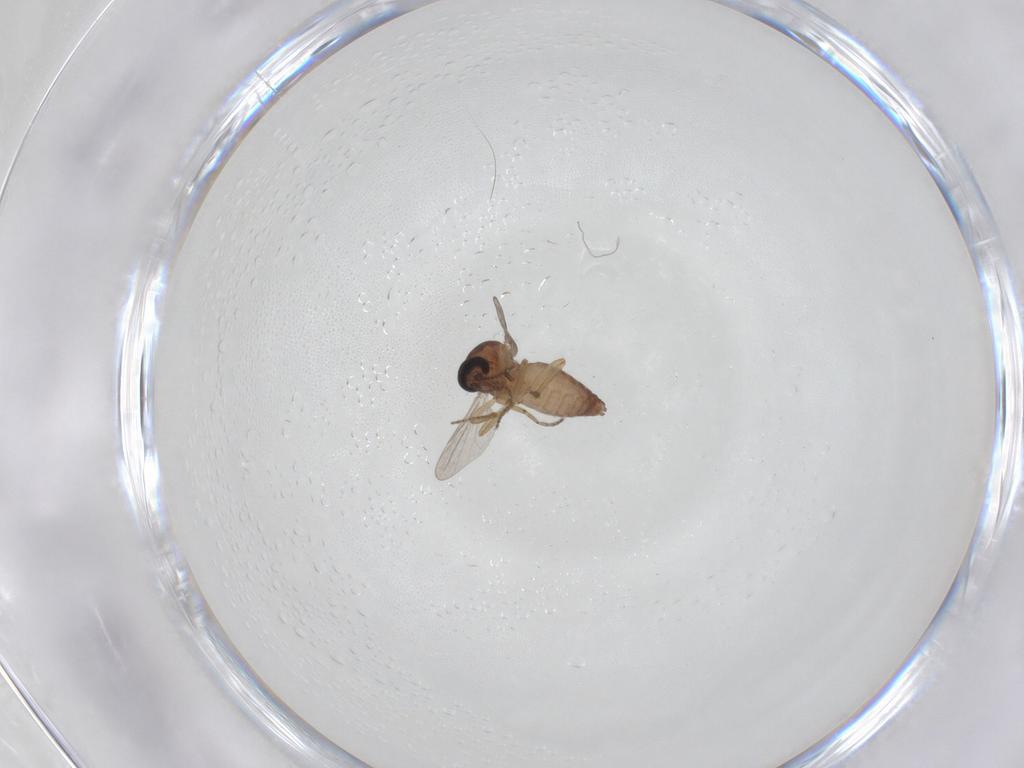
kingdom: Animalia
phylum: Arthropoda
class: Insecta
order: Diptera
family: Ceratopogonidae
